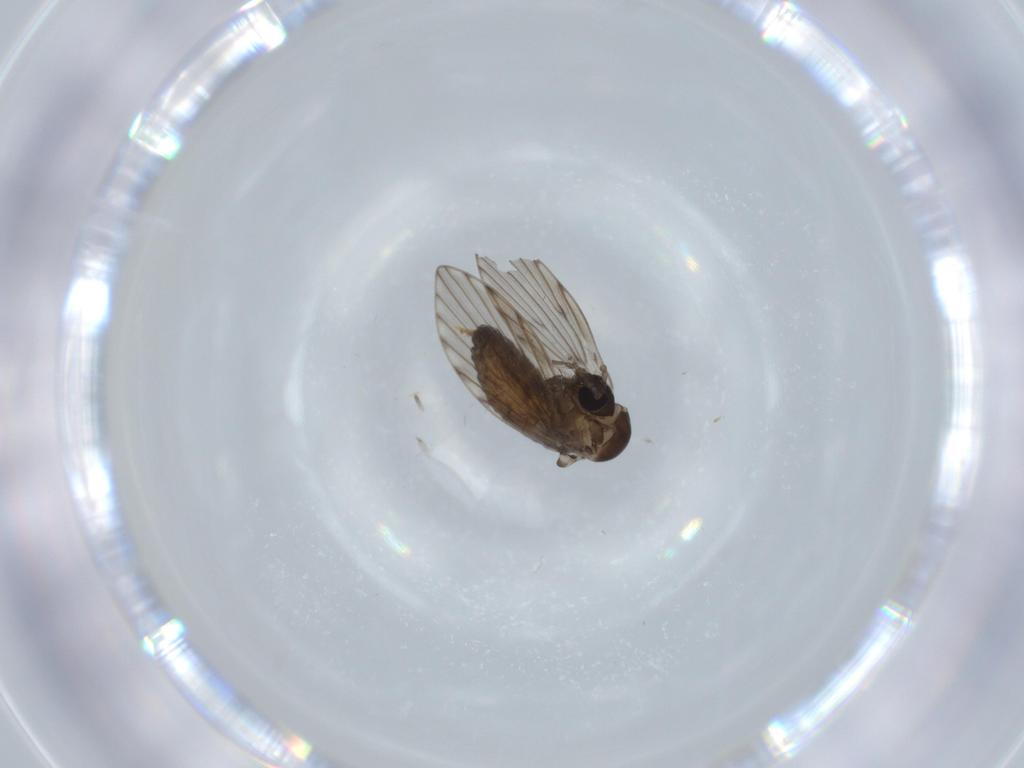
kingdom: Animalia
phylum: Arthropoda
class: Insecta
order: Diptera
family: Psychodidae
